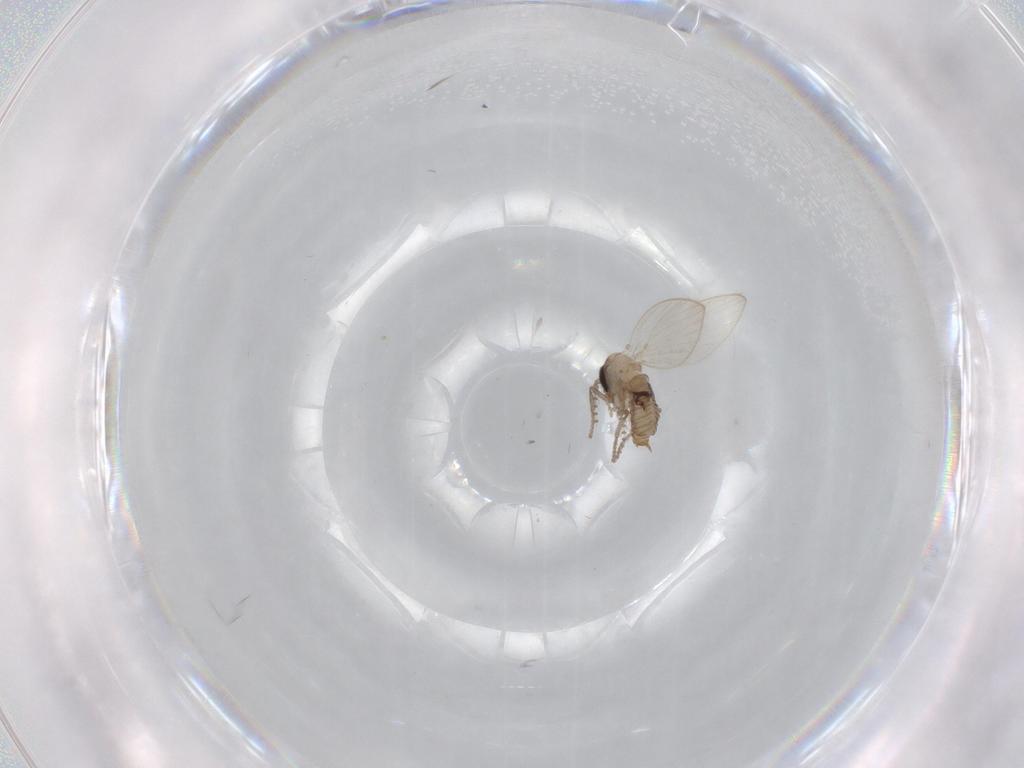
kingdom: Animalia
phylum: Arthropoda
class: Insecta
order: Diptera
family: Psychodidae
